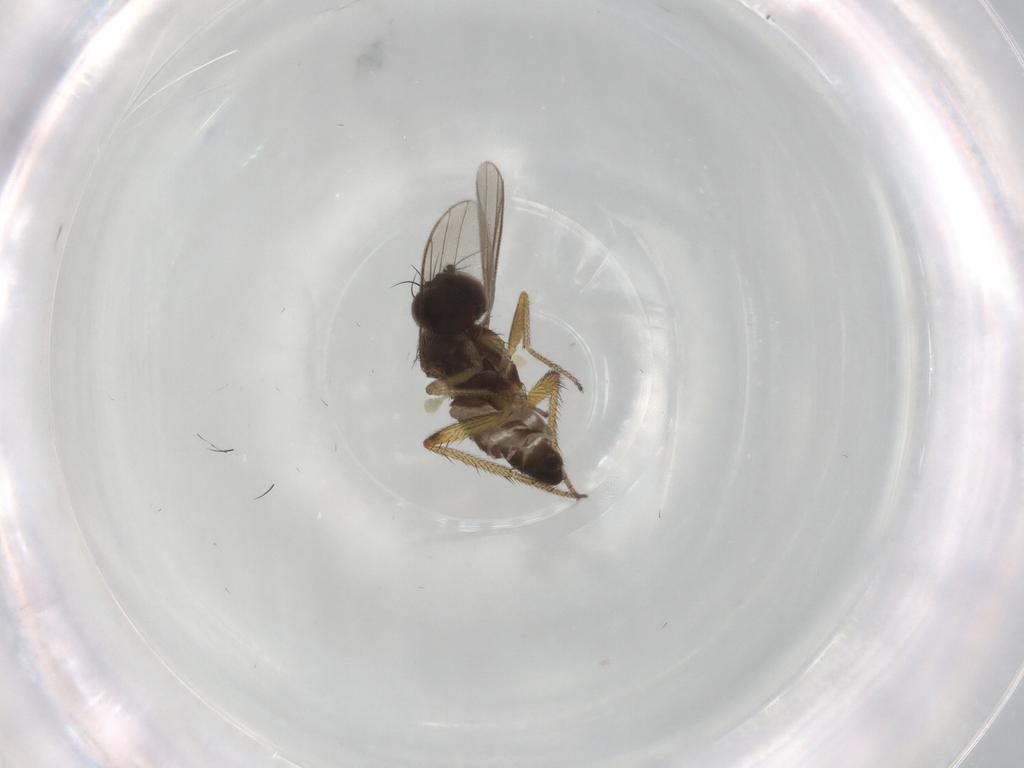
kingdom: Animalia
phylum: Arthropoda
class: Insecta
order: Diptera
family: Dolichopodidae
